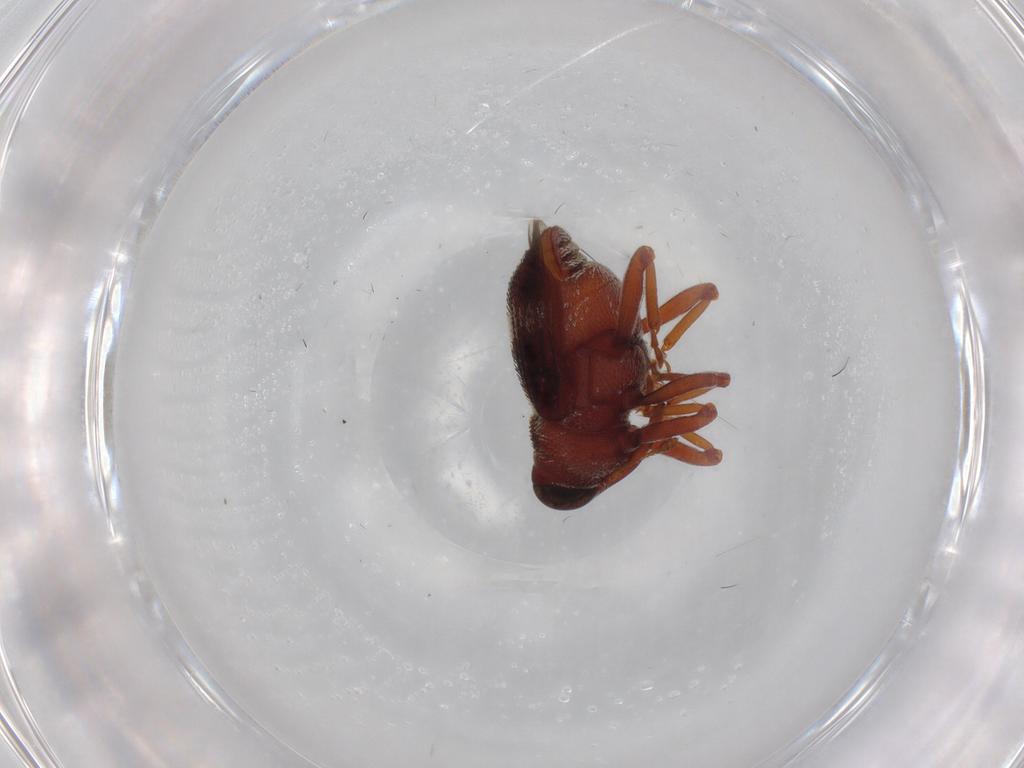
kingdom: Animalia
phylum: Arthropoda
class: Insecta
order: Coleoptera
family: Curculionidae
